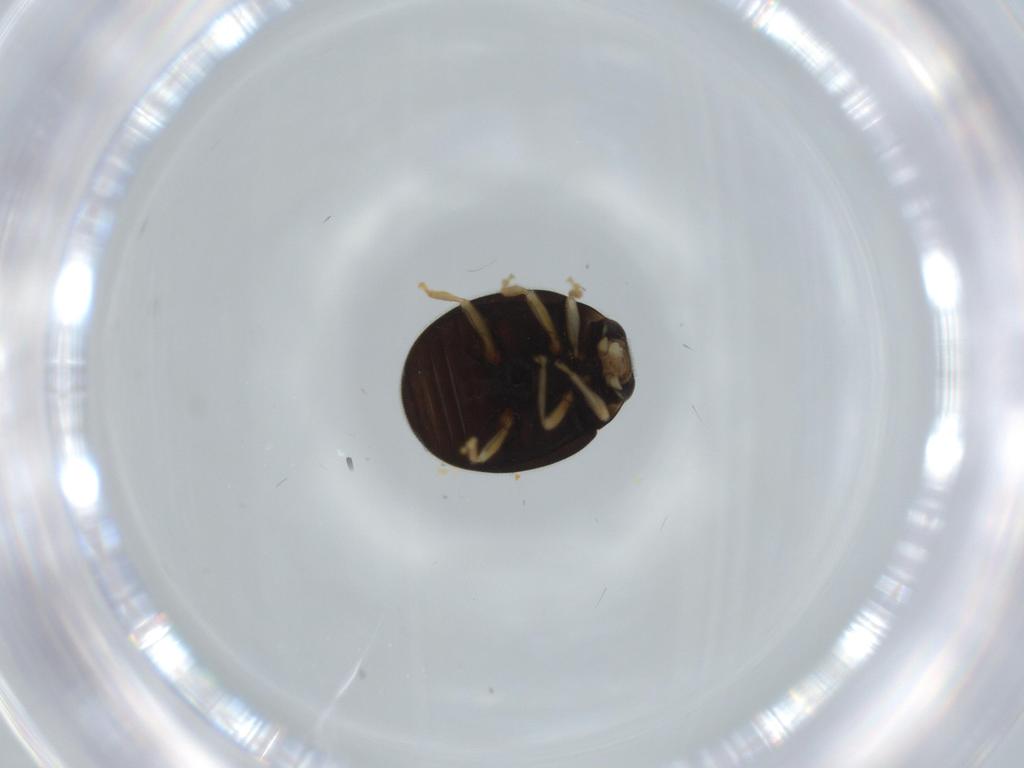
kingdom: Animalia
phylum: Arthropoda
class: Insecta
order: Coleoptera
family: Coccinellidae
